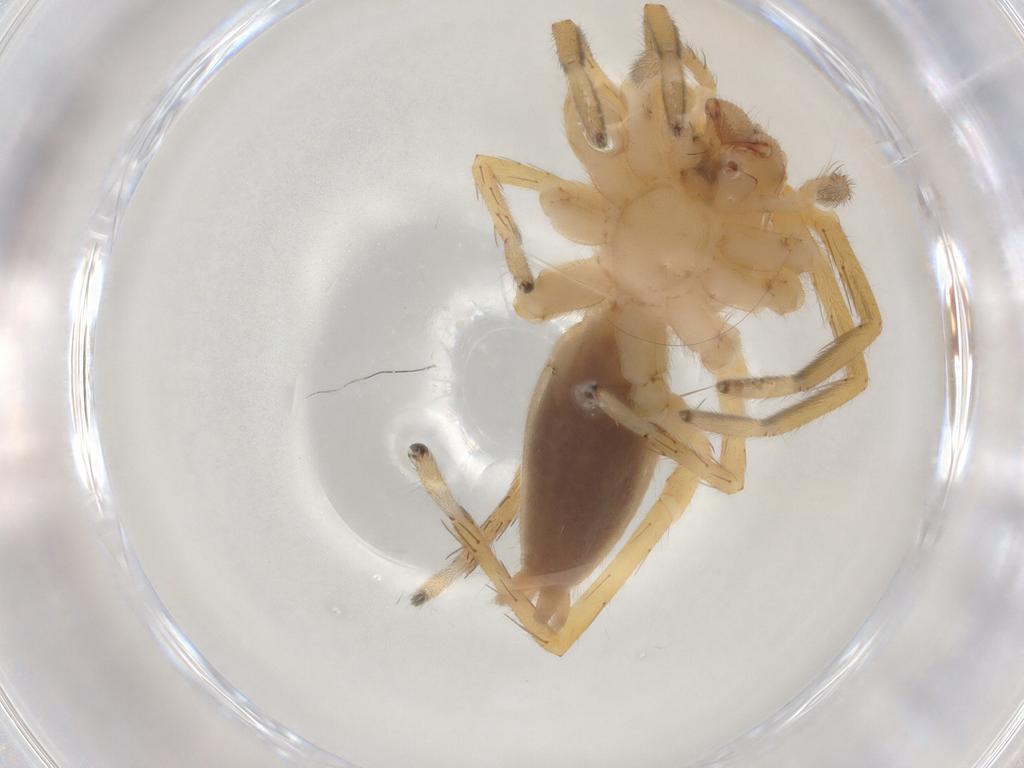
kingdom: Animalia
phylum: Arthropoda
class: Arachnida
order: Araneae
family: Clubionidae
